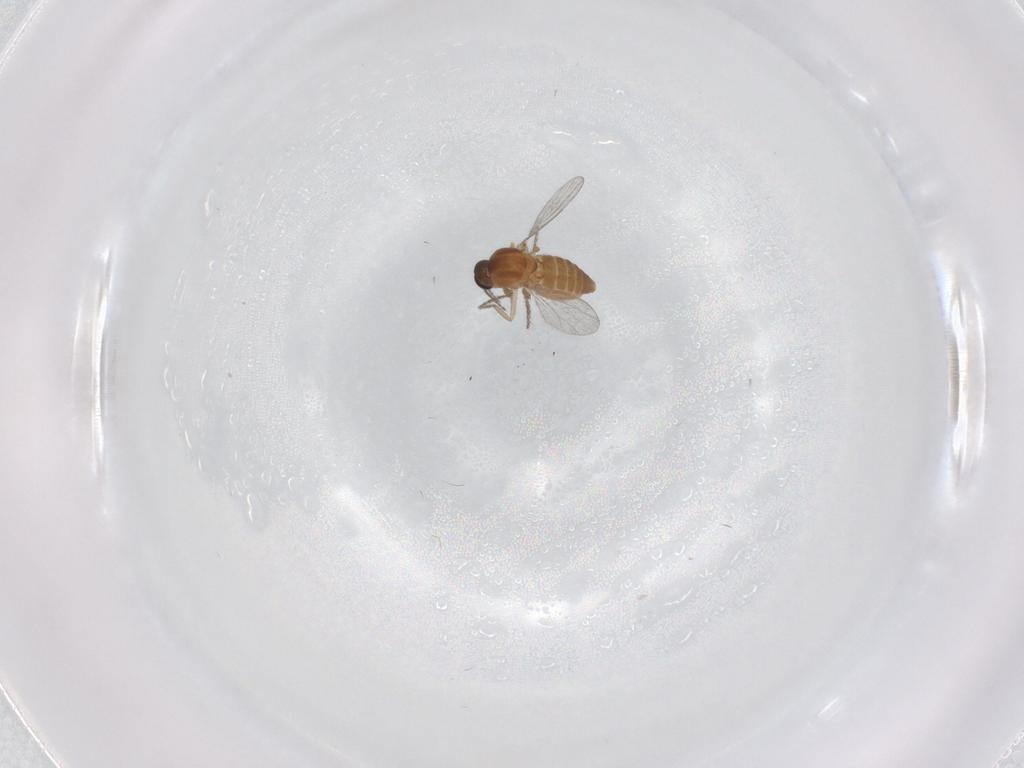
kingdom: Animalia
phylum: Arthropoda
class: Insecta
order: Diptera
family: Ceratopogonidae
